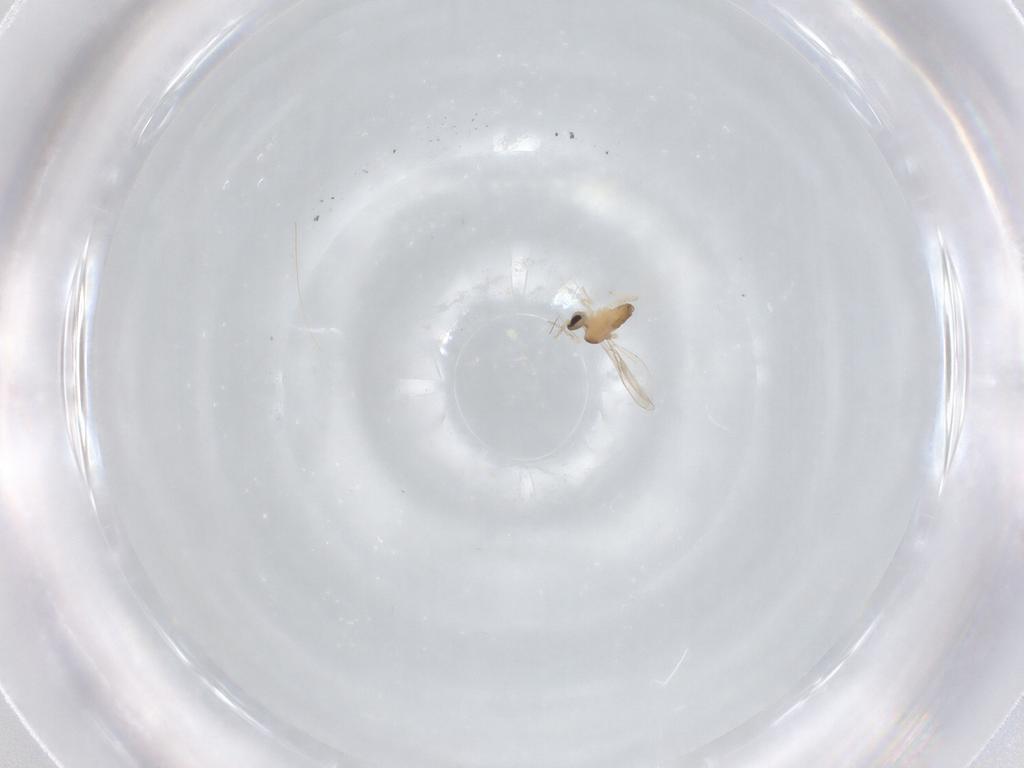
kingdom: Animalia
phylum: Arthropoda
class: Insecta
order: Diptera
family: Cecidomyiidae
